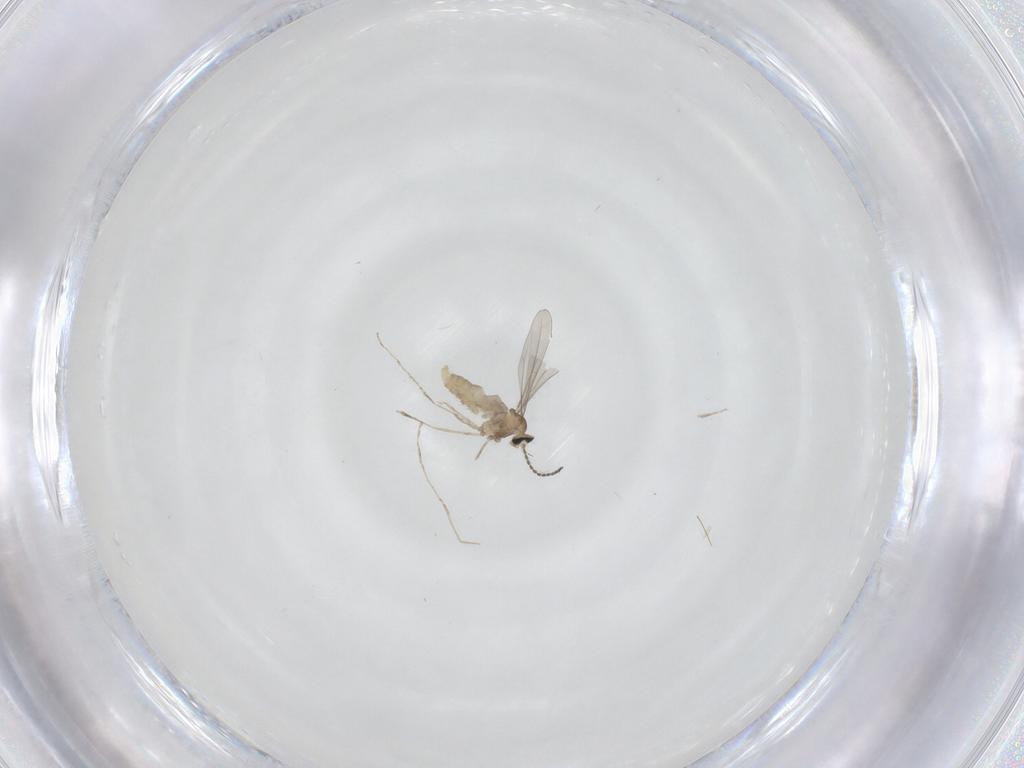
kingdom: Animalia
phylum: Arthropoda
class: Insecta
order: Diptera
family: Cecidomyiidae
